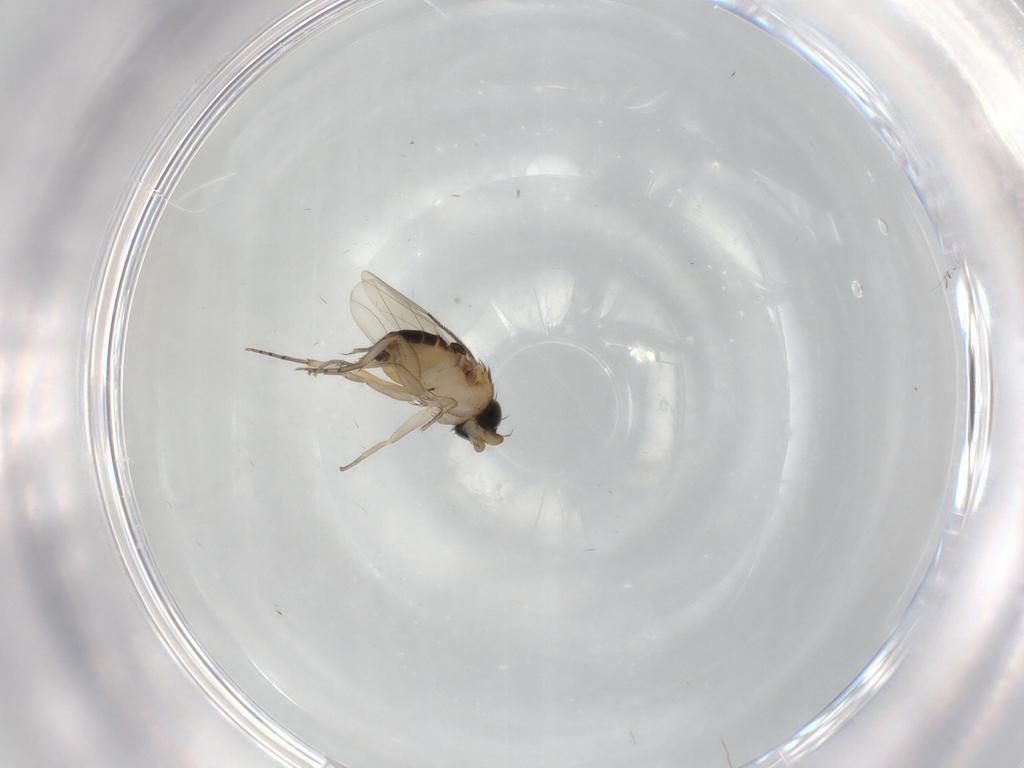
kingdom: Animalia
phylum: Arthropoda
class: Insecta
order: Diptera
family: Phoridae
